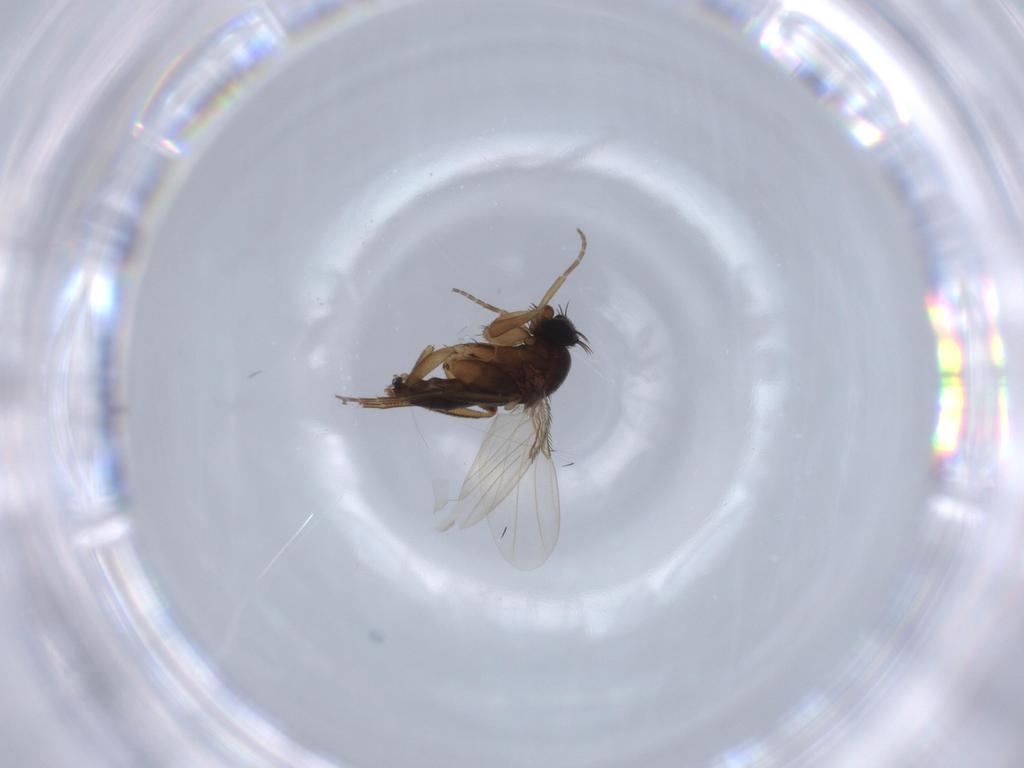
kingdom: Animalia
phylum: Arthropoda
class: Insecta
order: Diptera
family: Phoridae
